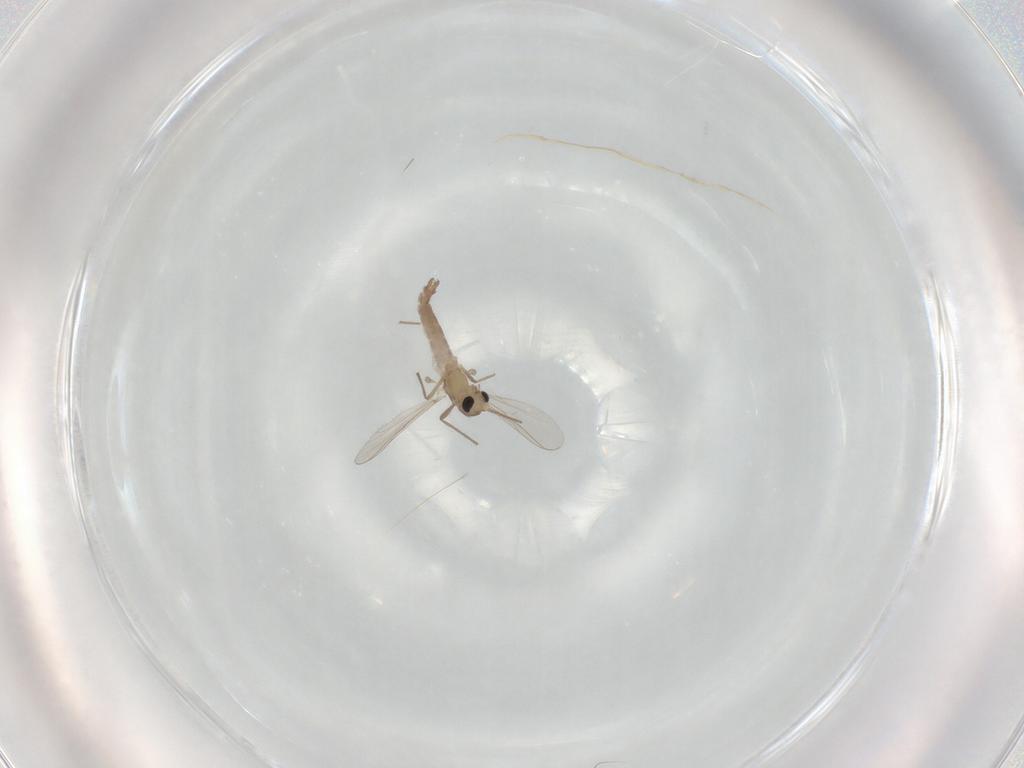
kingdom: Animalia
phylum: Arthropoda
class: Insecta
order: Diptera
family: Chironomidae
